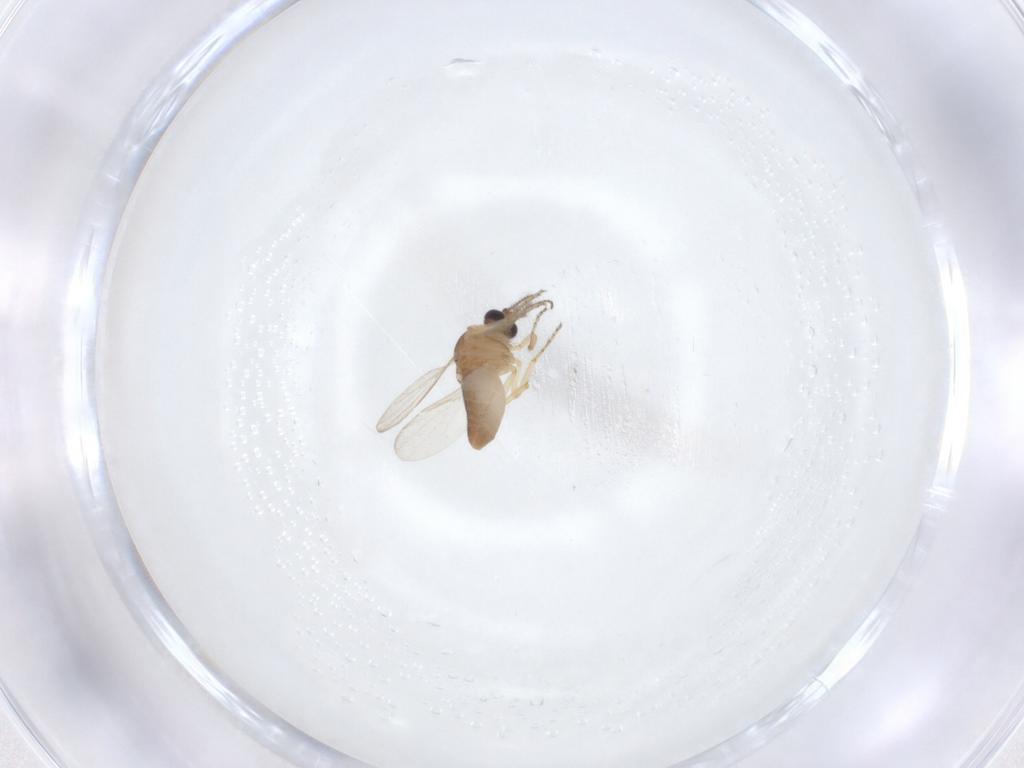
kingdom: Animalia
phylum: Arthropoda
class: Insecta
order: Diptera
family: Ceratopogonidae
